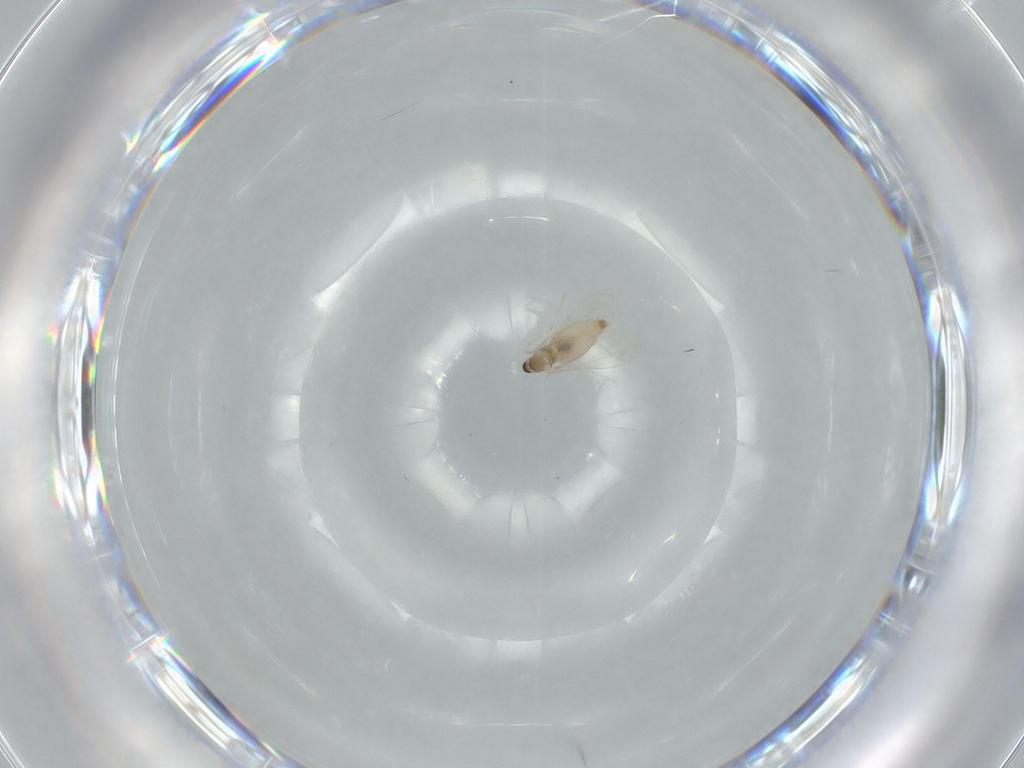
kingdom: Animalia
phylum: Arthropoda
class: Insecta
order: Diptera
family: Cecidomyiidae
